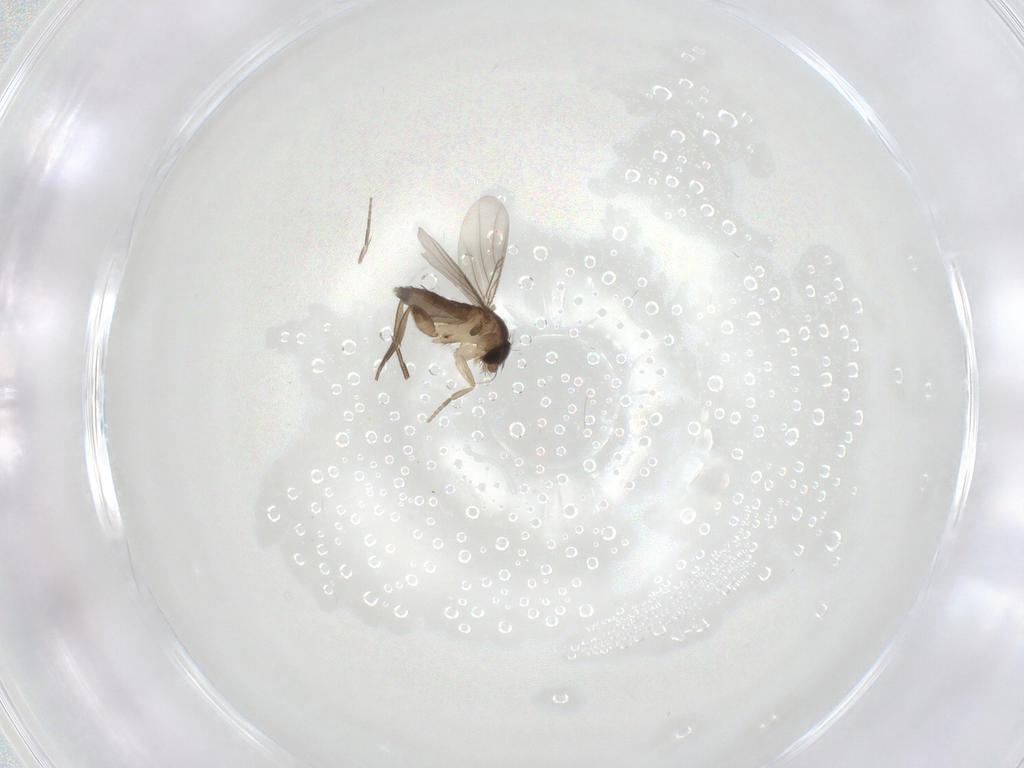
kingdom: Animalia
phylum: Arthropoda
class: Insecta
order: Diptera
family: Phoridae
